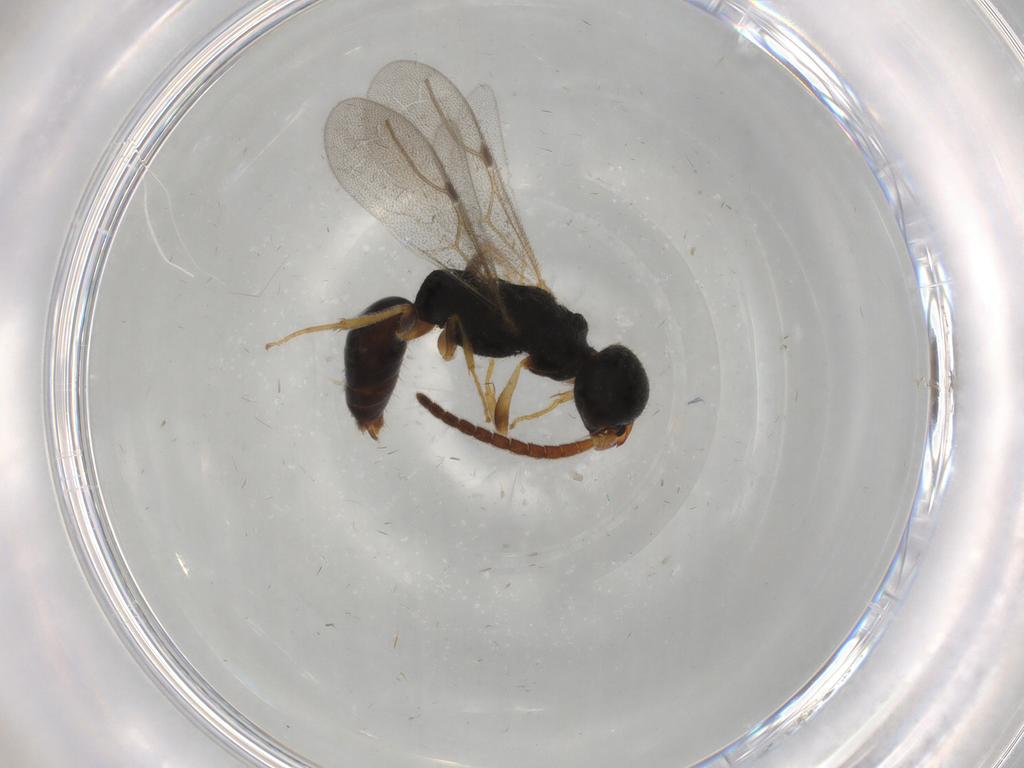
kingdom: Animalia
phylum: Arthropoda
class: Insecta
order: Hymenoptera
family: Bethylidae
